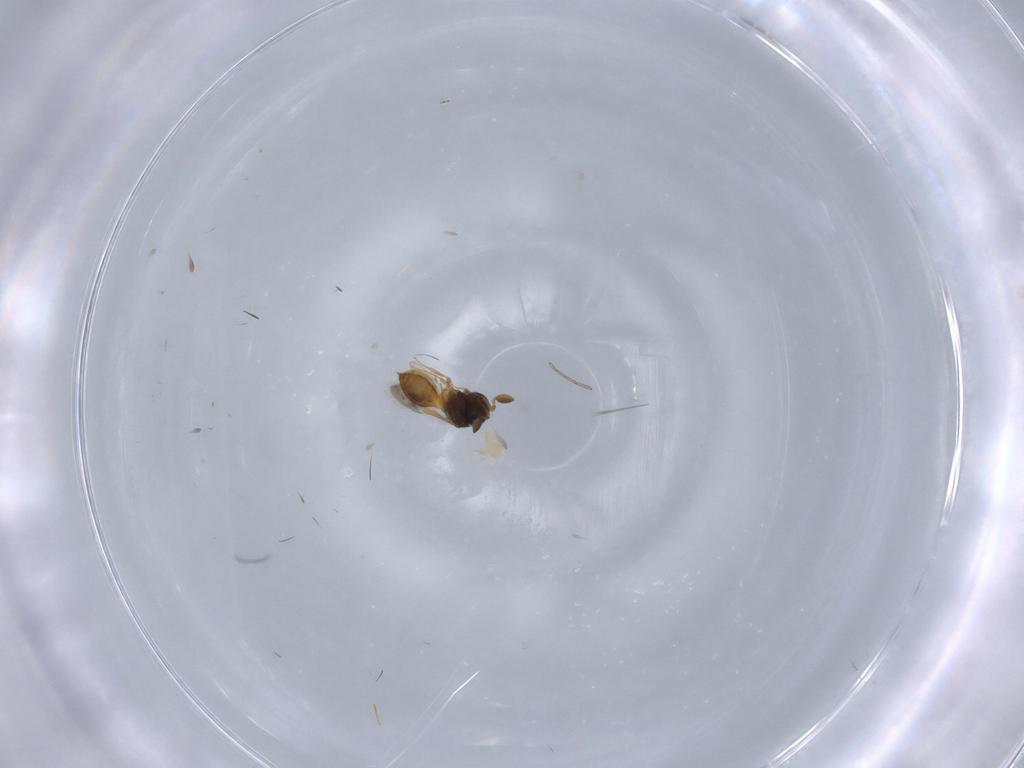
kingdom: Animalia
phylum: Arthropoda
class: Insecta
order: Hymenoptera
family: Scelionidae
